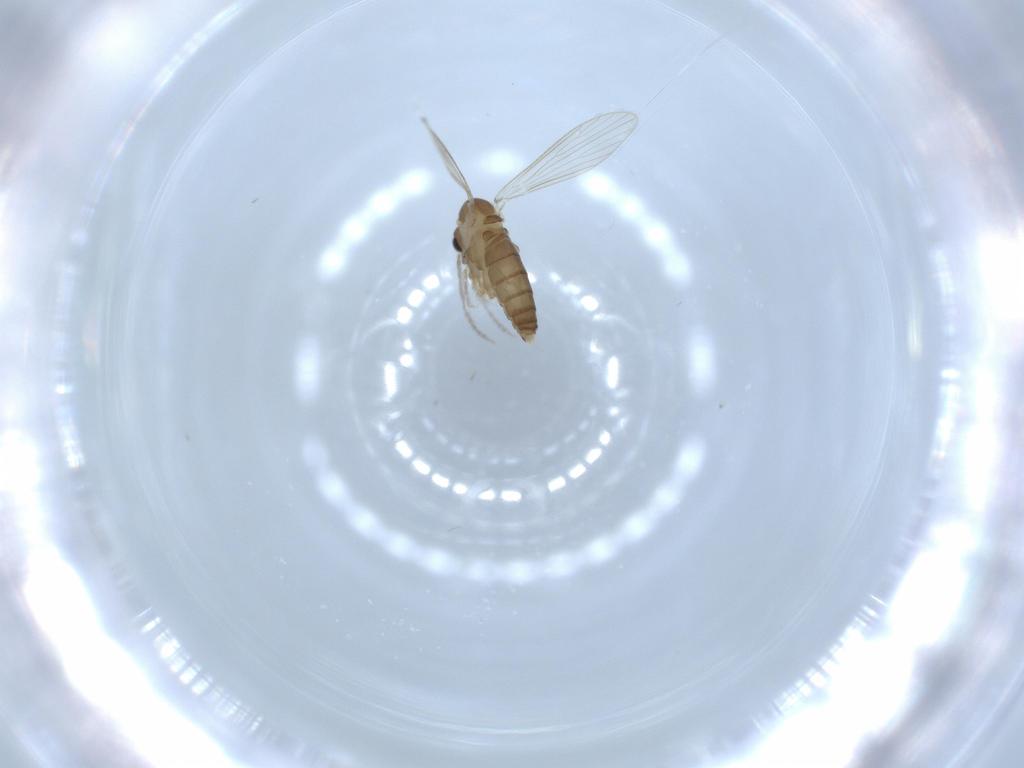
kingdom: Animalia
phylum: Arthropoda
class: Insecta
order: Diptera
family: Psychodidae
